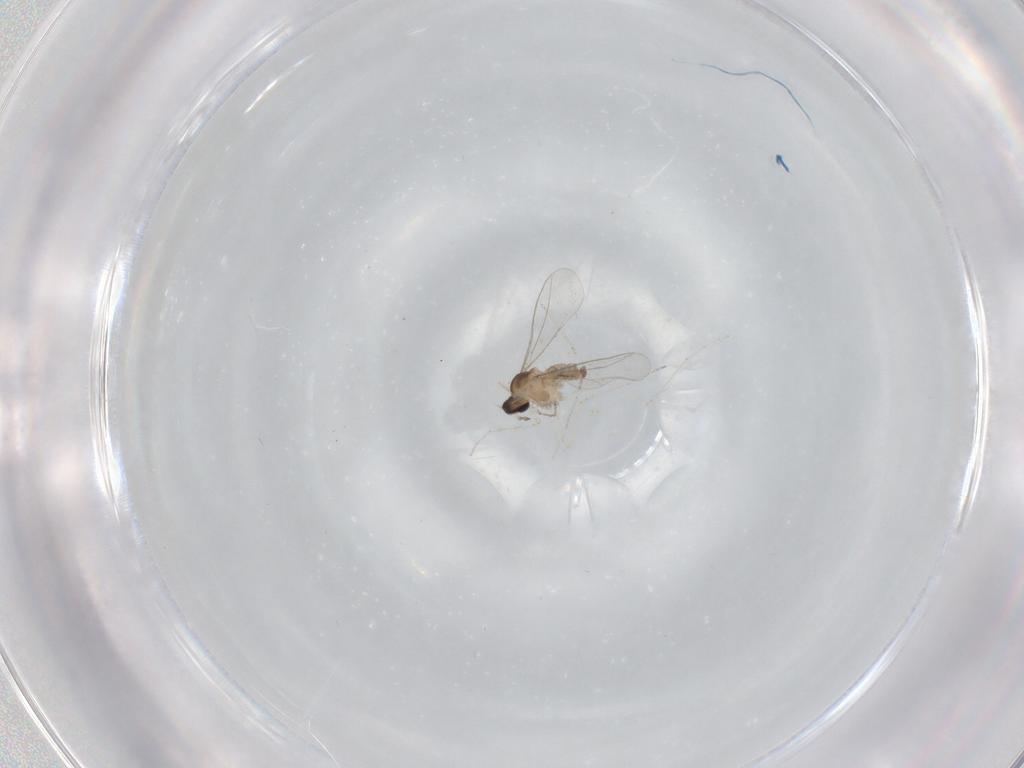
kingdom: Animalia
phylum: Arthropoda
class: Insecta
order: Diptera
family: Cecidomyiidae
